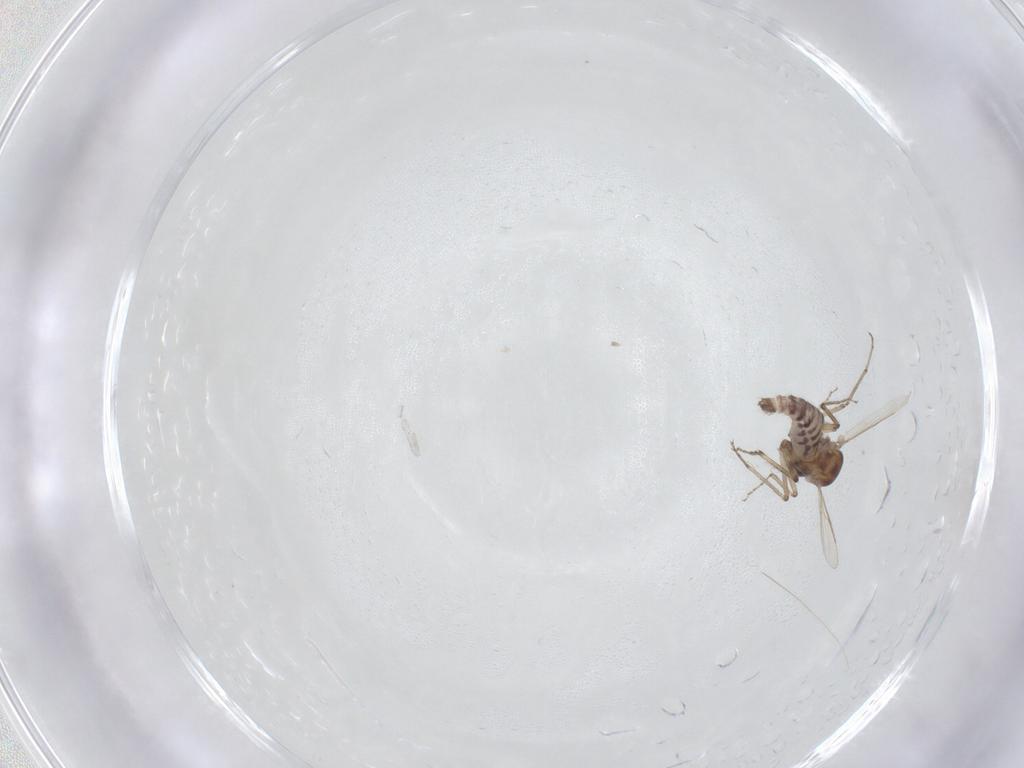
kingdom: Animalia
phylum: Arthropoda
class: Insecta
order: Diptera
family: Ceratopogonidae
